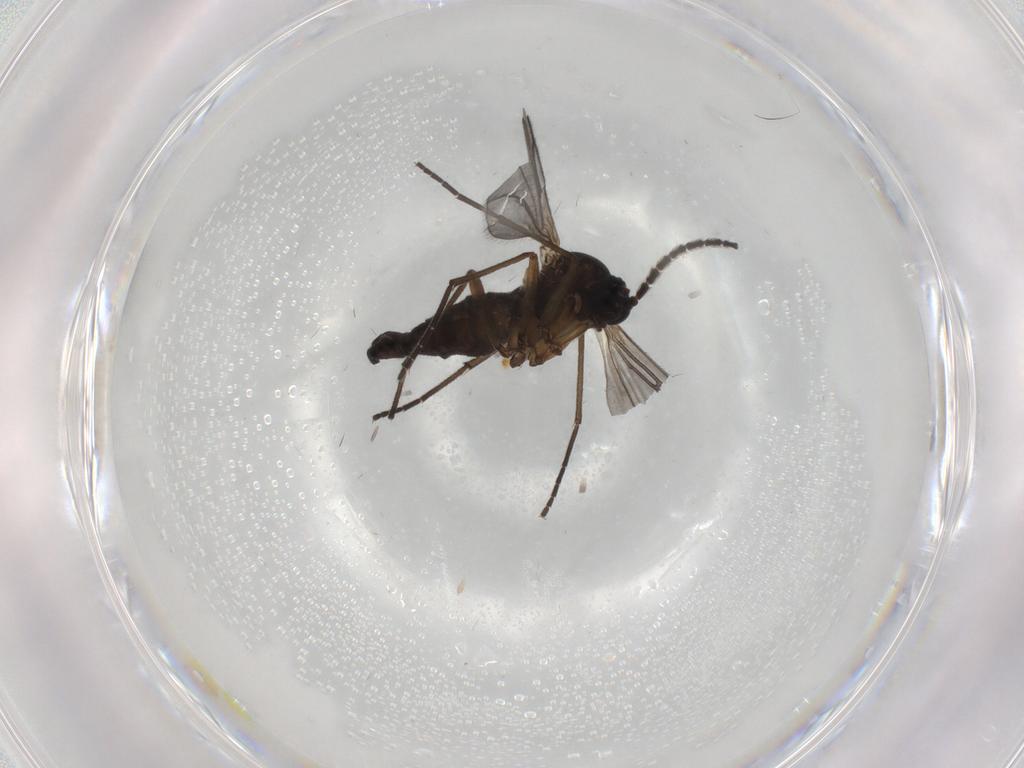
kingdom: Animalia
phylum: Arthropoda
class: Insecta
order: Diptera
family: Sciaridae
